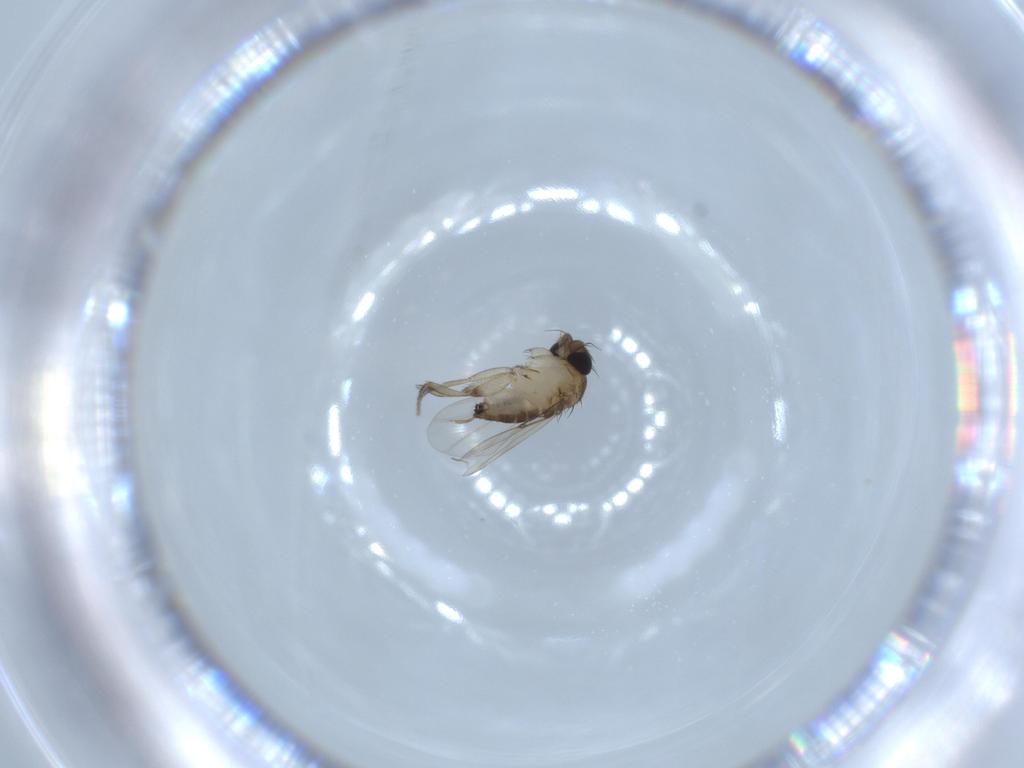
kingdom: Animalia
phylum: Arthropoda
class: Insecta
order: Diptera
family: Phoridae
